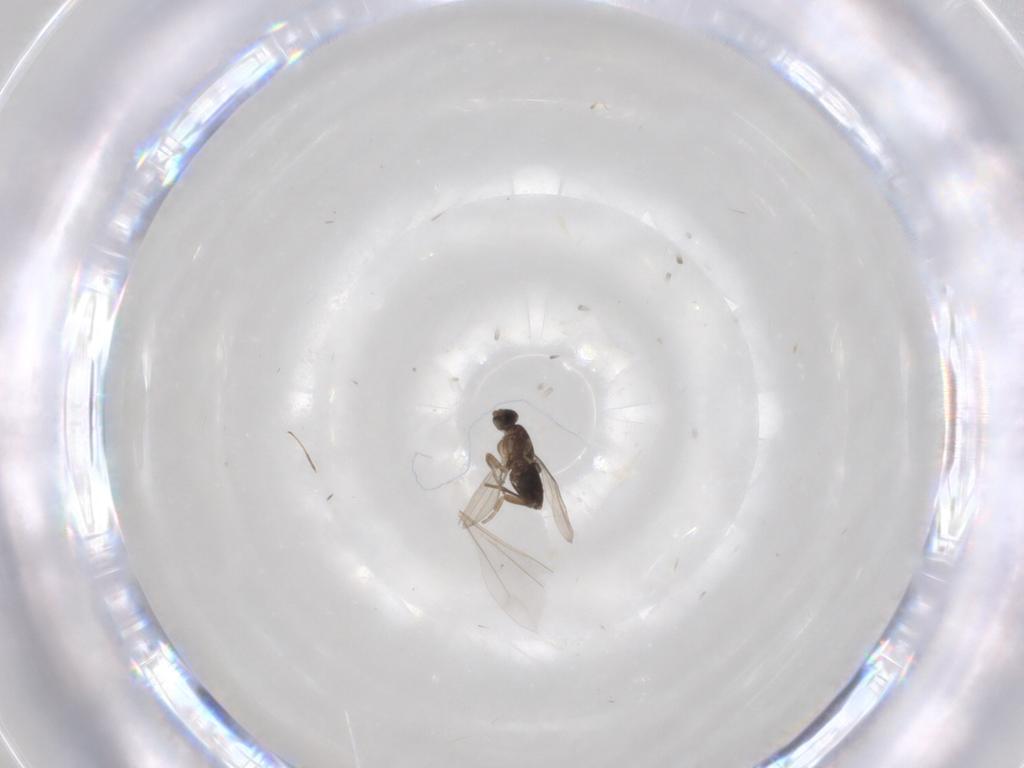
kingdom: Animalia
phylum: Arthropoda
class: Insecta
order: Diptera
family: Phoridae
